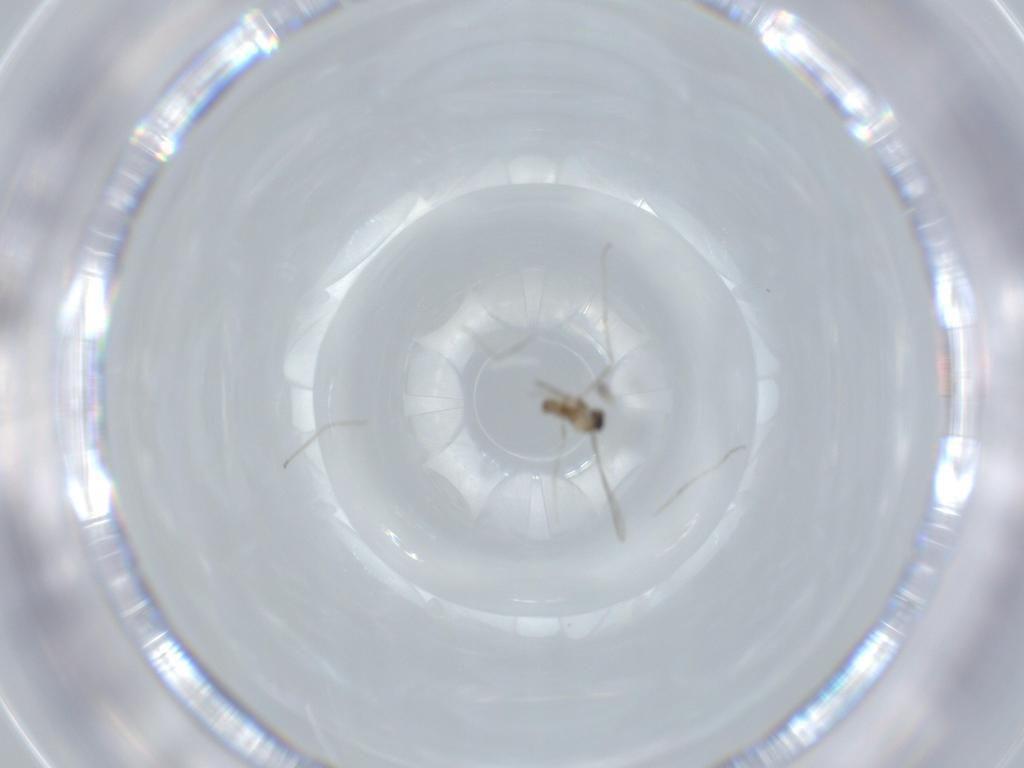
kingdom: Animalia
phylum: Arthropoda
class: Insecta
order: Diptera
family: Cecidomyiidae
